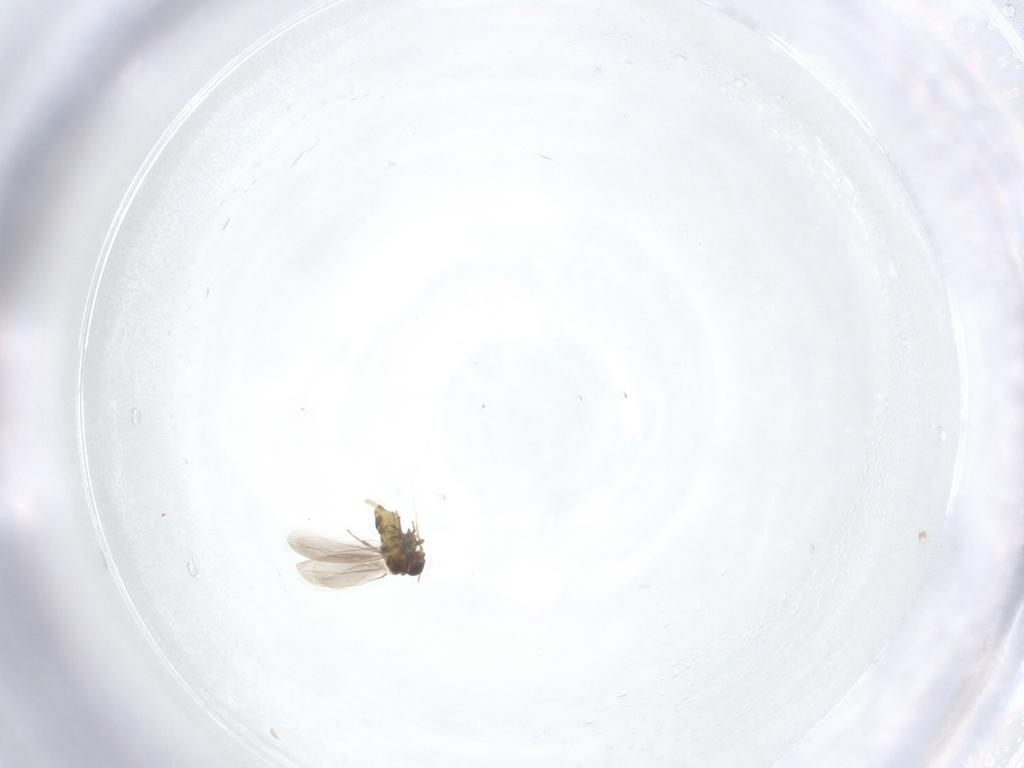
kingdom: Animalia
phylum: Arthropoda
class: Insecta
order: Hemiptera
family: Aleyrodidae
